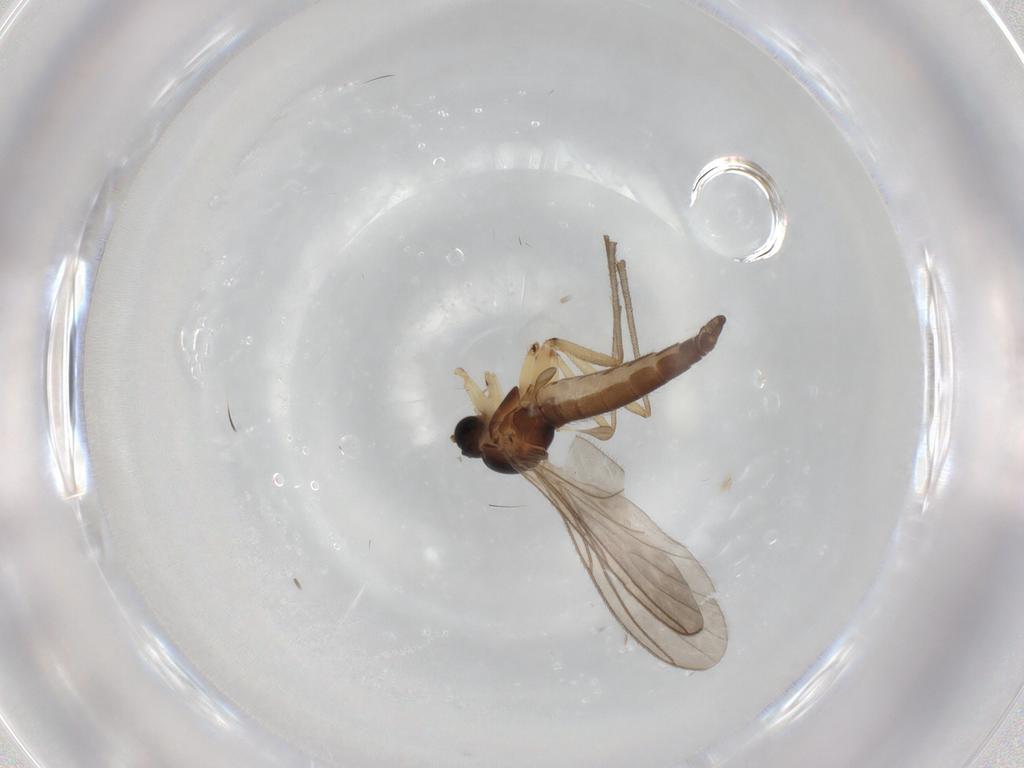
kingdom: Animalia
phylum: Arthropoda
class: Insecta
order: Diptera
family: Sciaridae
